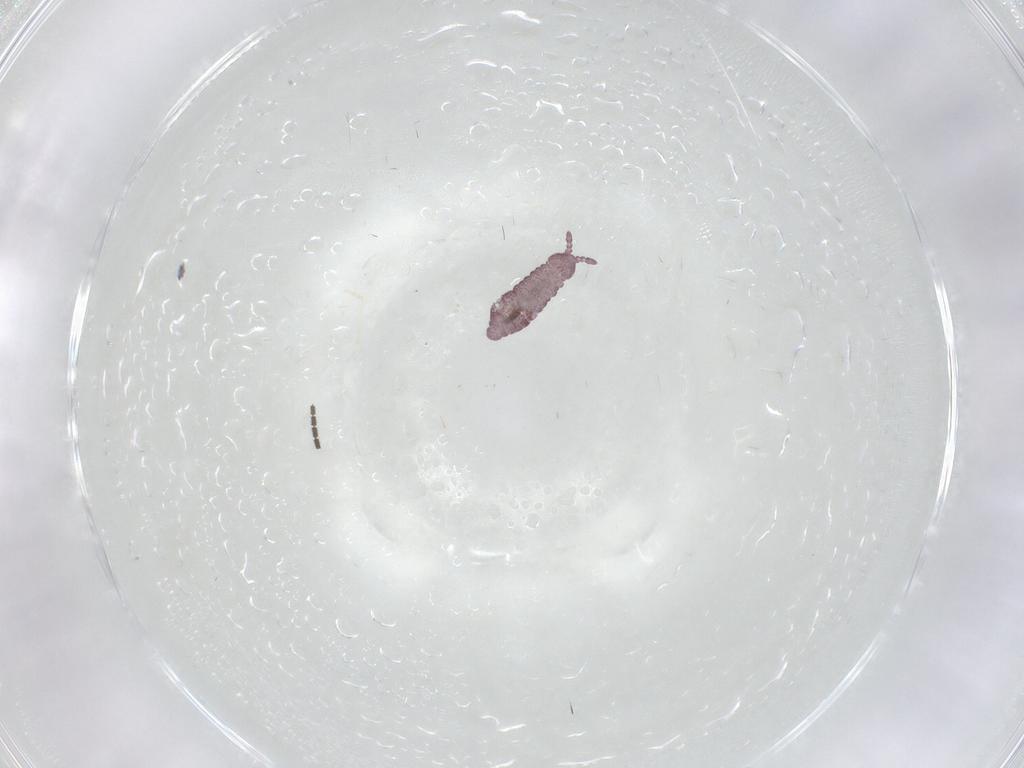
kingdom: Animalia
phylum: Arthropoda
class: Collembola
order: Poduromorpha
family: Hypogastruridae
